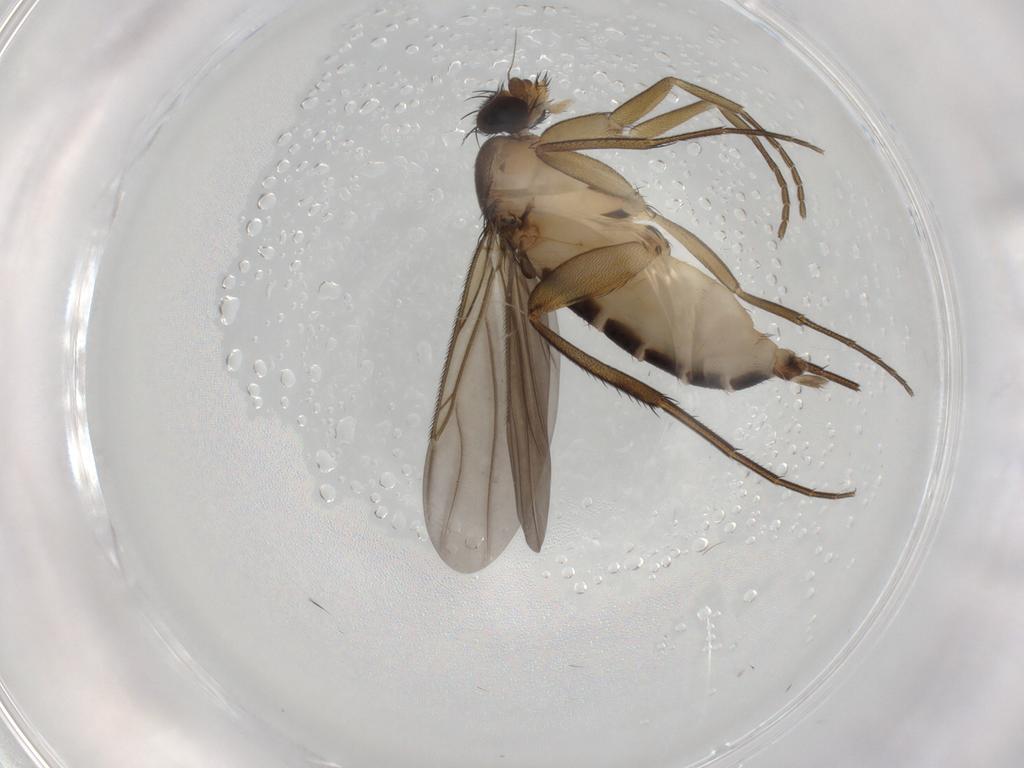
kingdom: Animalia
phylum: Arthropoda
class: Insecta
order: Diptera
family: Phoridae
